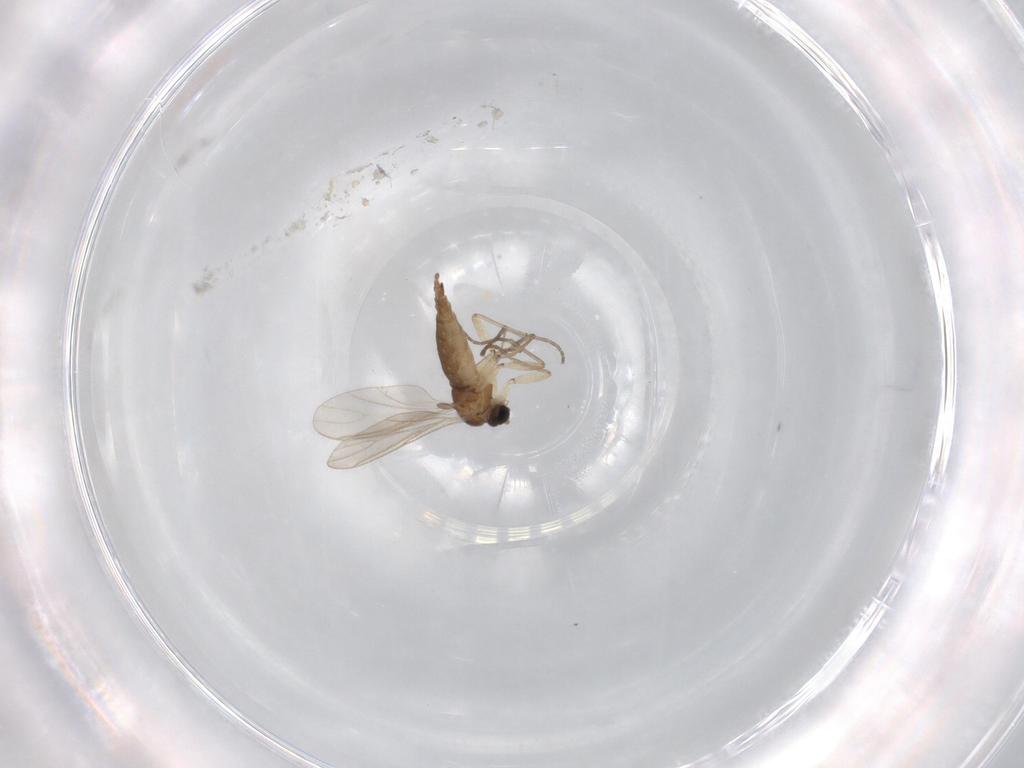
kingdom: Animalia
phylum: Arthropoda
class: Insecta
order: Diptera
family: Sciaridae
